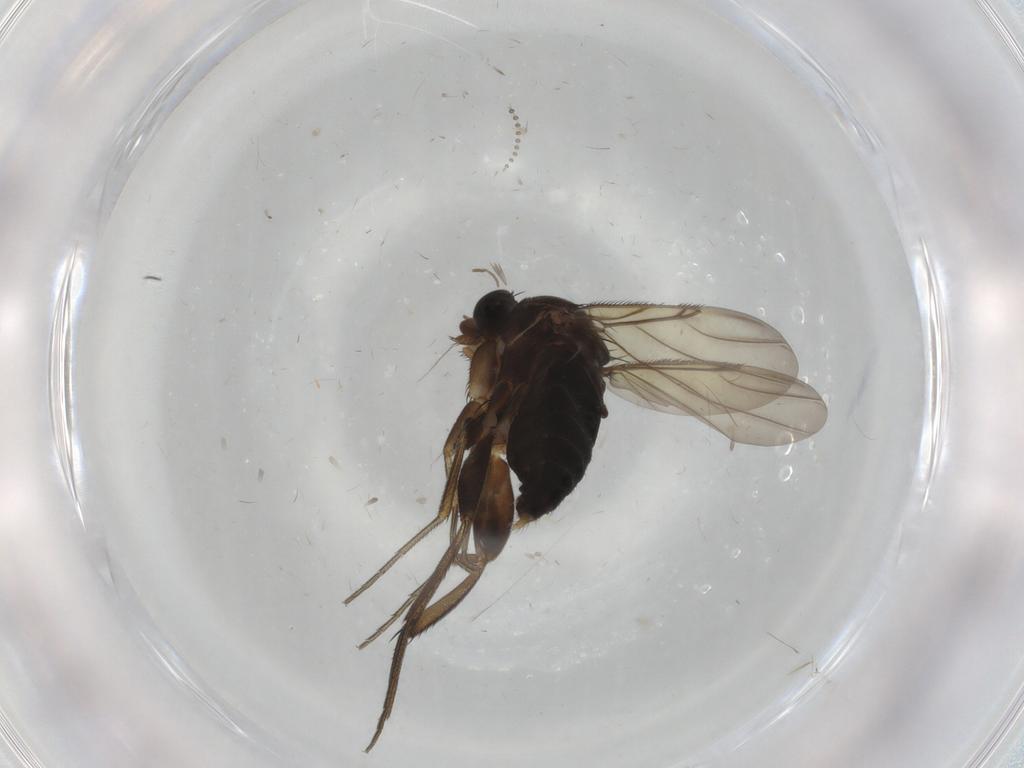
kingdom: Animalia
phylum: Arthropoda
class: Insecta
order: Diptera
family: Phoridae
